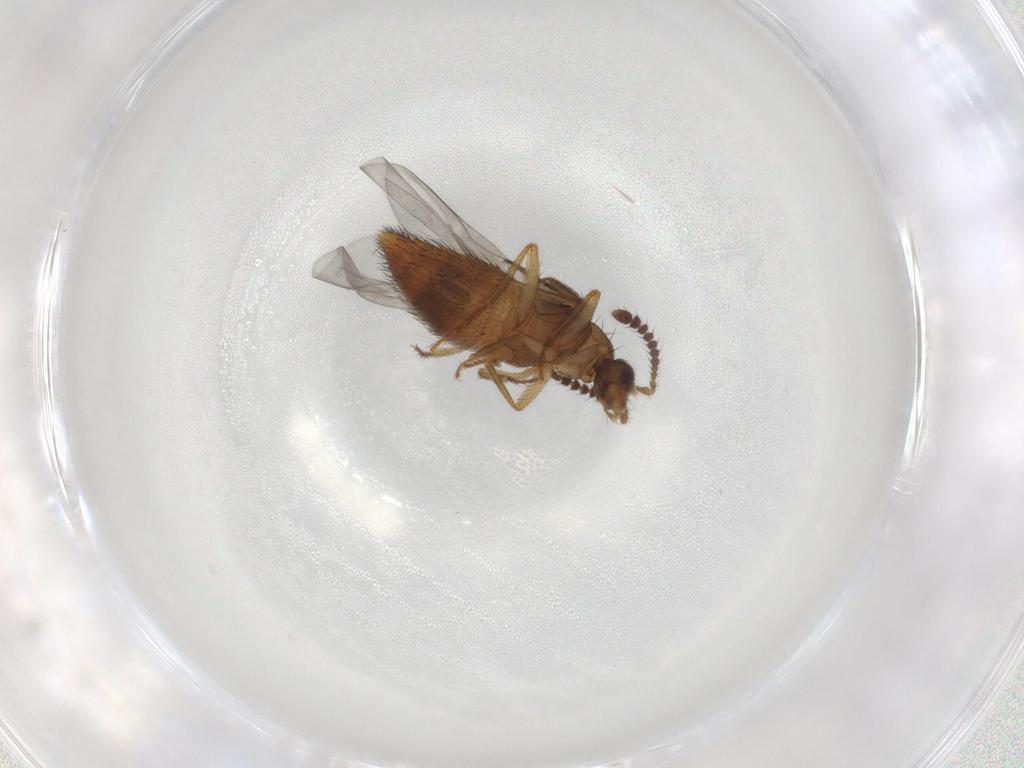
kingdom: Animalia
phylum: Arthropoda
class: Insecta
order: Coleoptera
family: Staphylinidae
